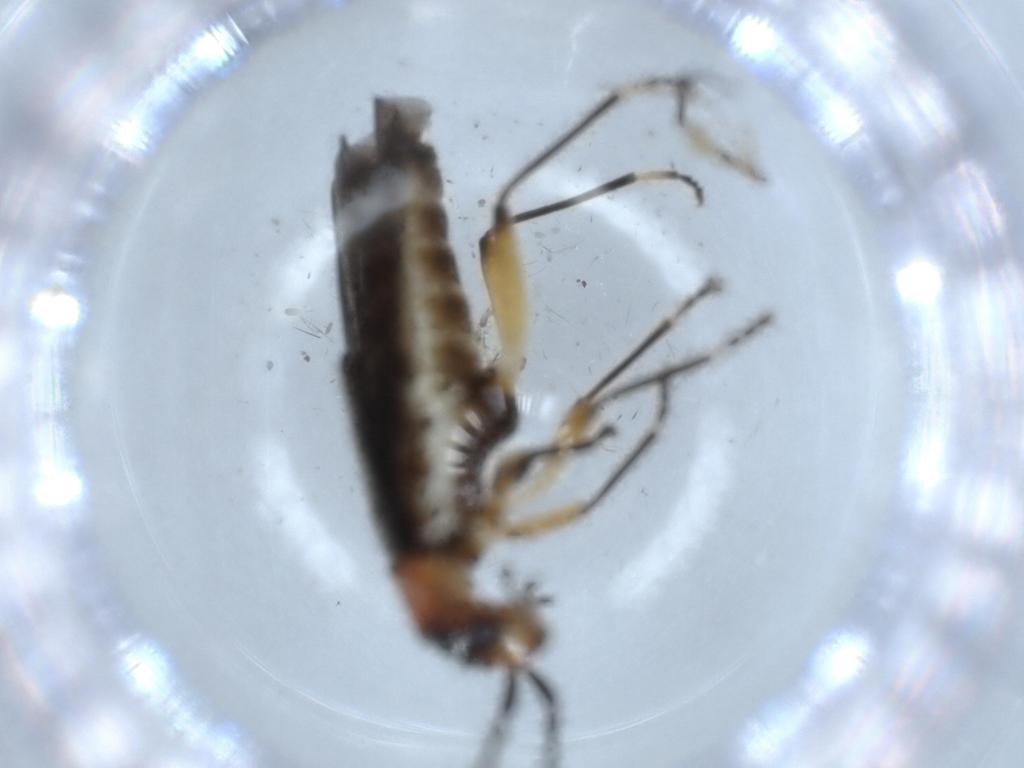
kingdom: Animalia
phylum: Arthropoda
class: Insecta
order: Coleoptera
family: Cantharidae
